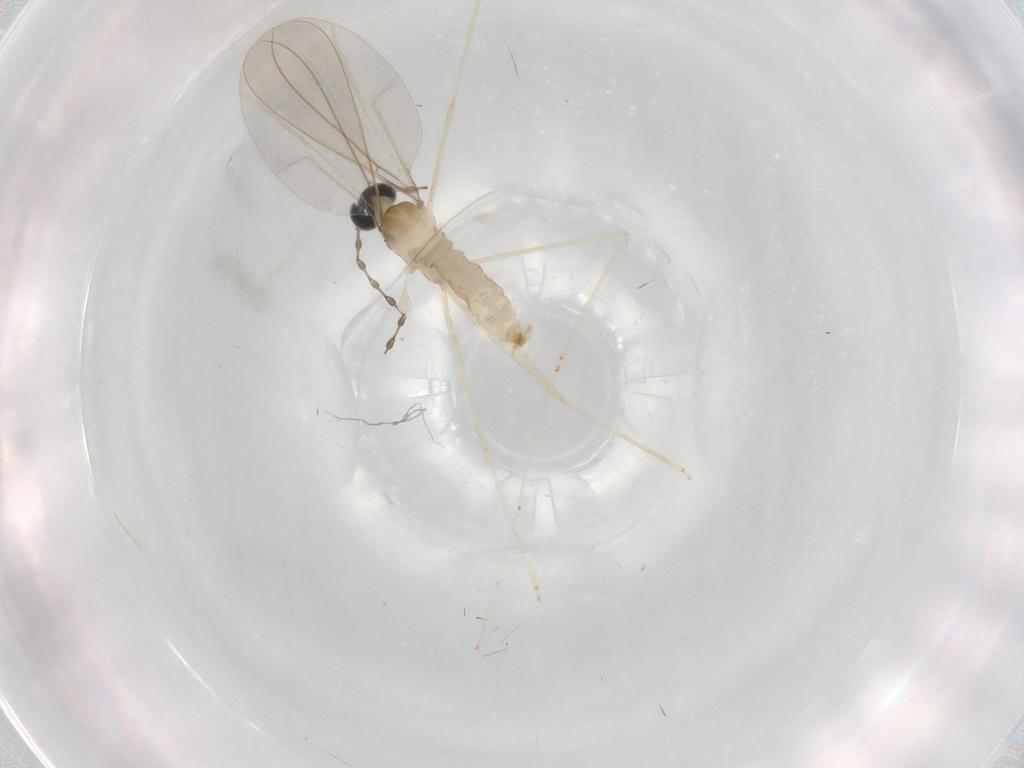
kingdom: Animalia
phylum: Arthropoda
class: Insecta
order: Diptera
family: Cecidomyiidae
